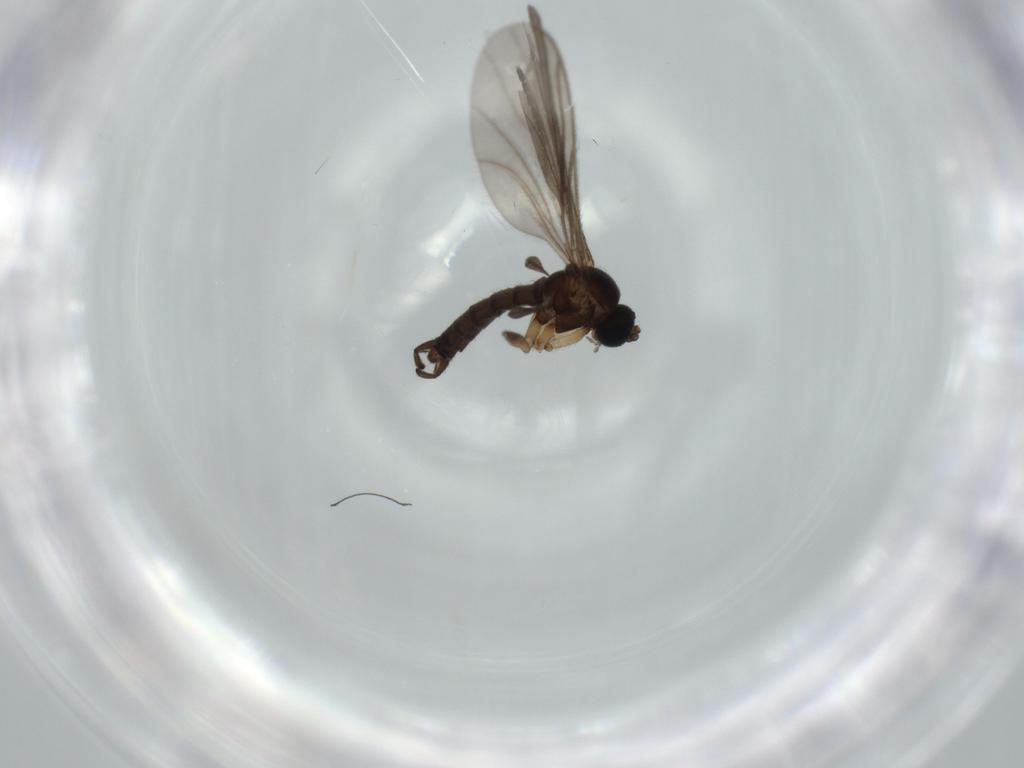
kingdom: Animalia
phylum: Arthropoda
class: Insecta
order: Diptera
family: Sciaridae
